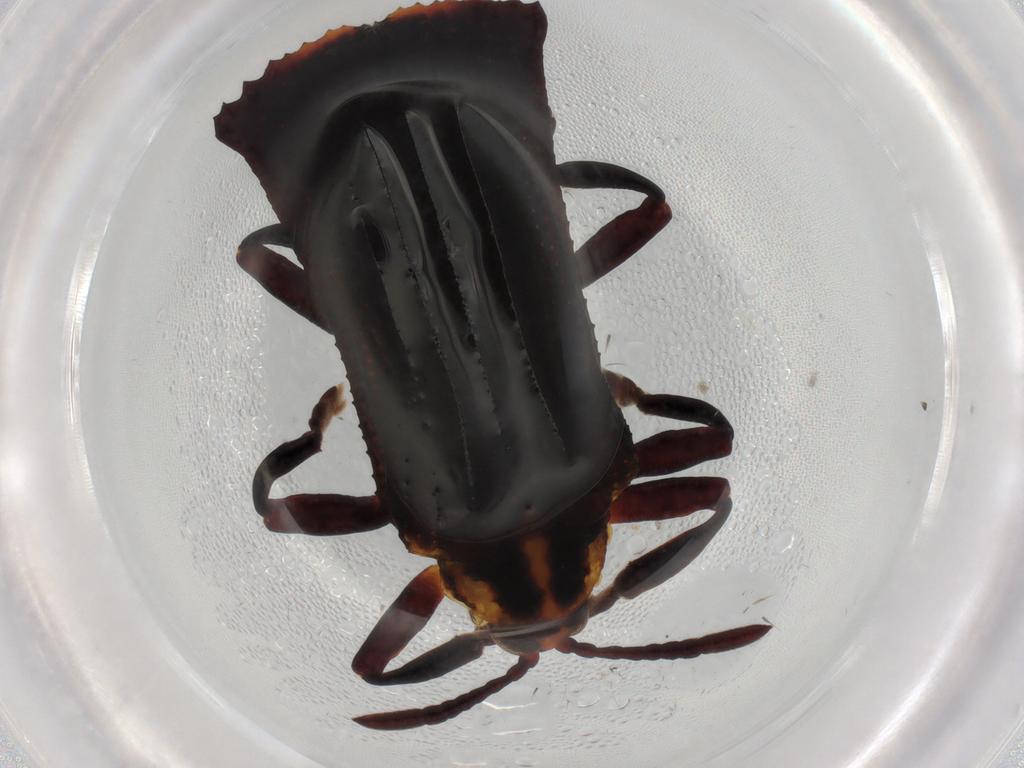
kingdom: Animalia
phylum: Arthropoda
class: Insecta
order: Coleoptera
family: Chrysomelidae
